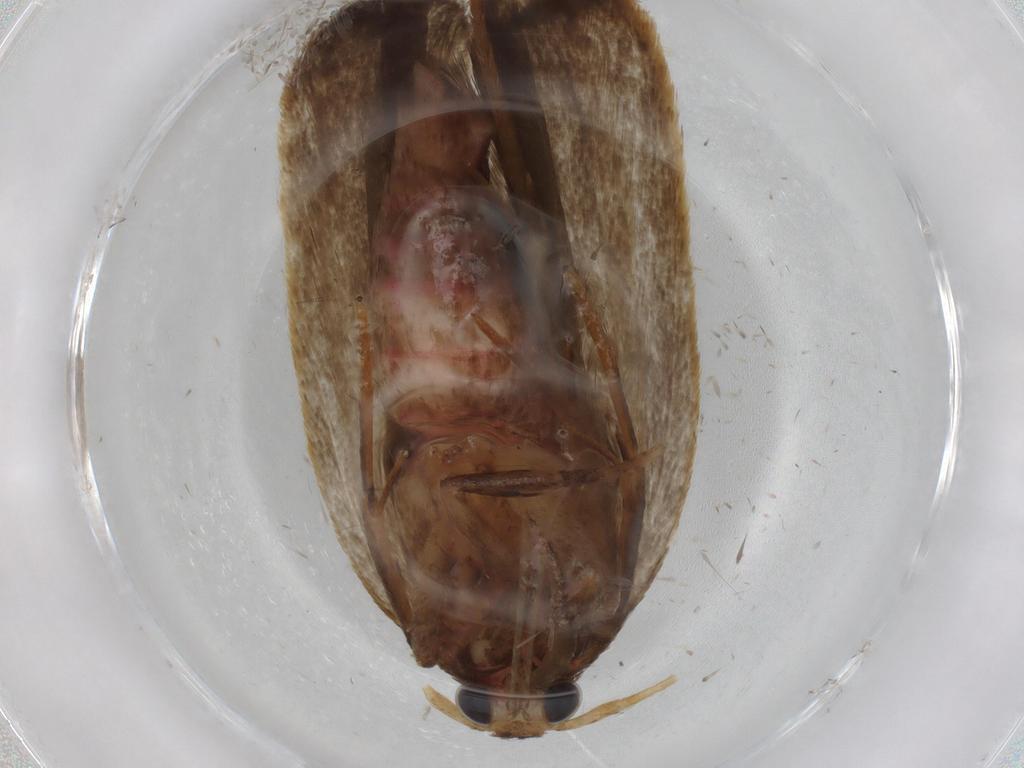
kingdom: Animalia
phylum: Arthropoda
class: Insecta
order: Lepidoptera
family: Autostichidae
